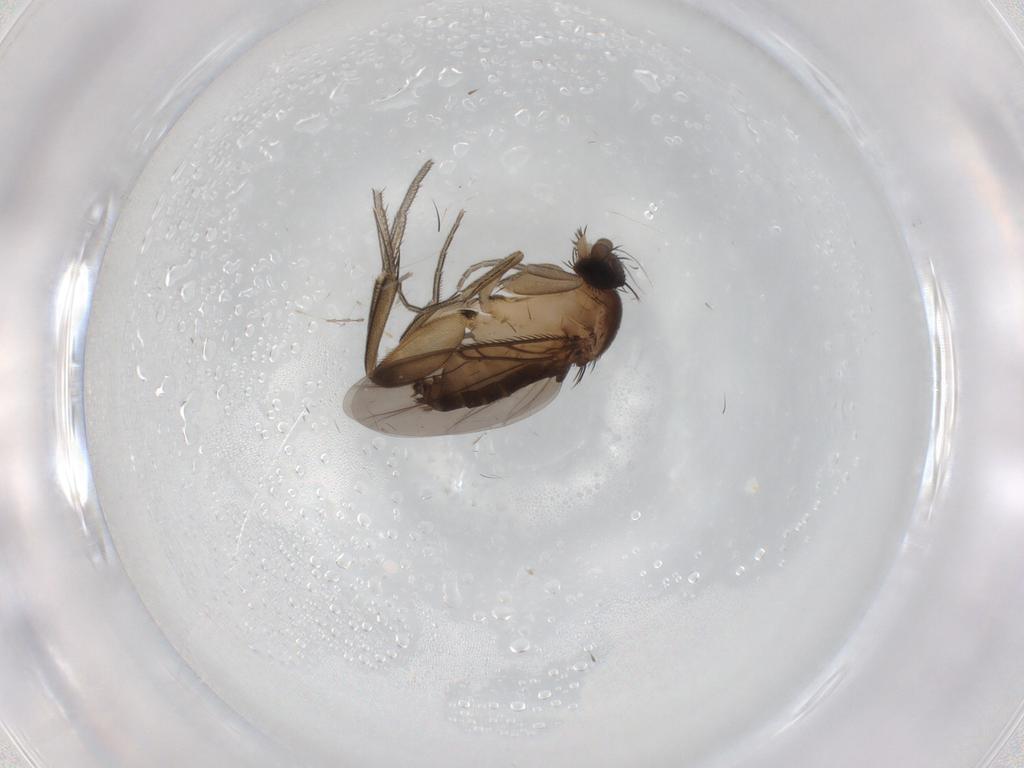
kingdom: Animalia
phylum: Arthropoda
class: Insecta
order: Diptera
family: Phoridae
